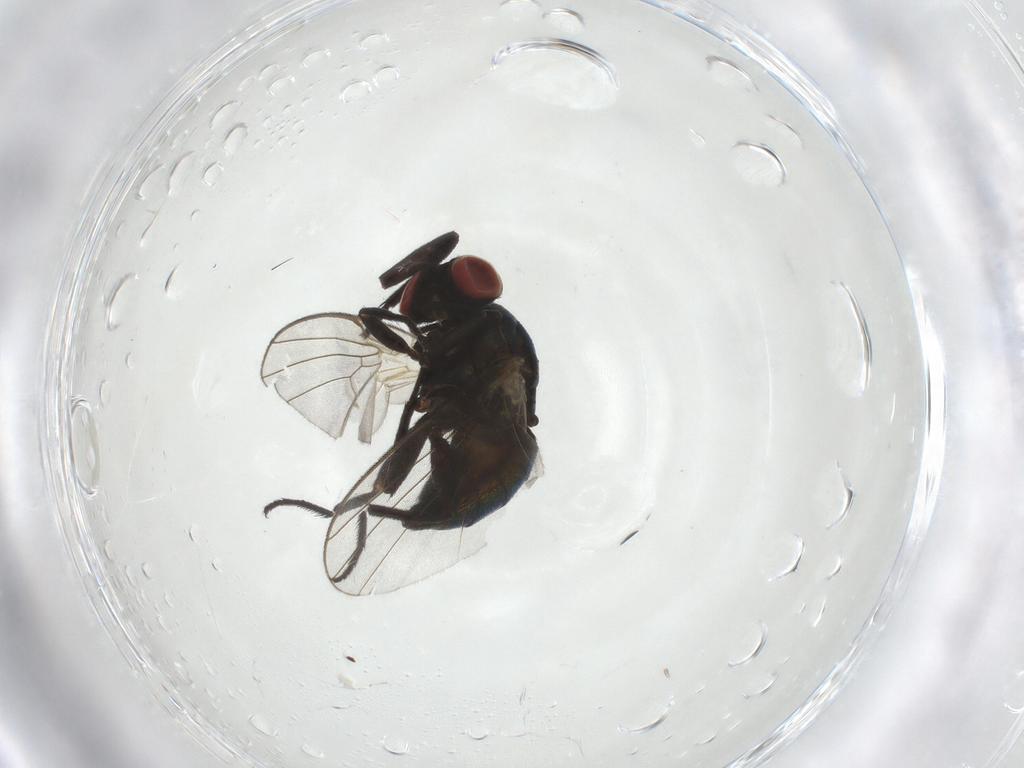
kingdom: Animalia
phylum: Arthropoda
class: Insecta
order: Diptera
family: Agromyzidae
